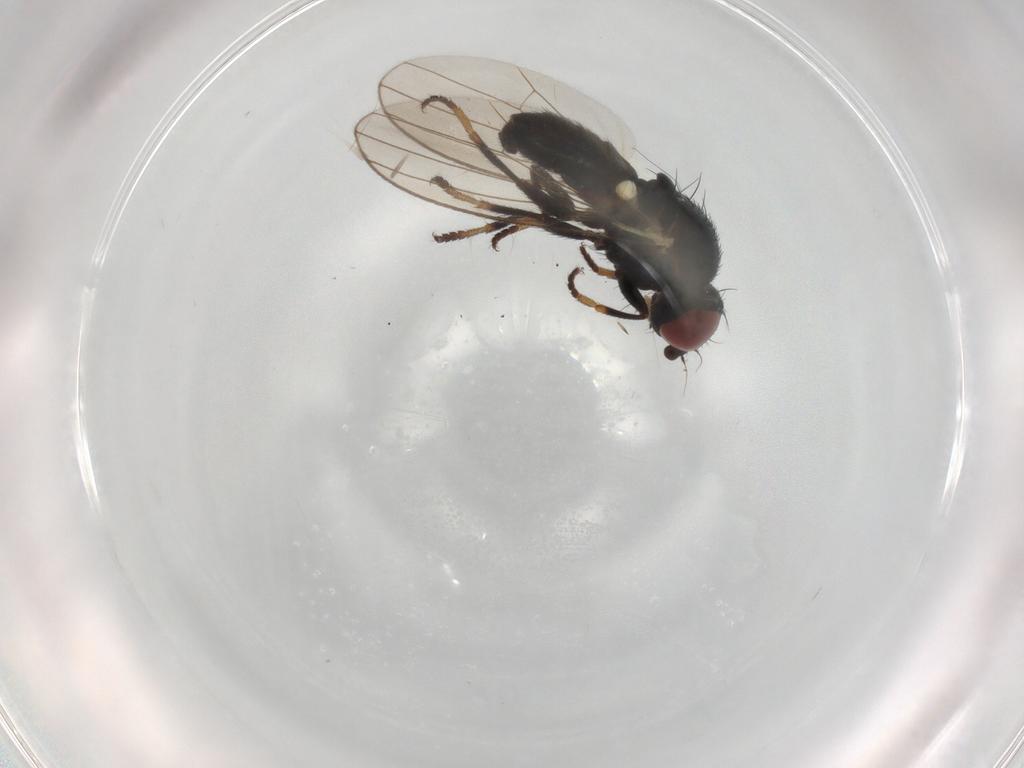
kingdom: Animalia
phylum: Arthropoda
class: Insecta
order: Diptera
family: Chamaemyiidae
